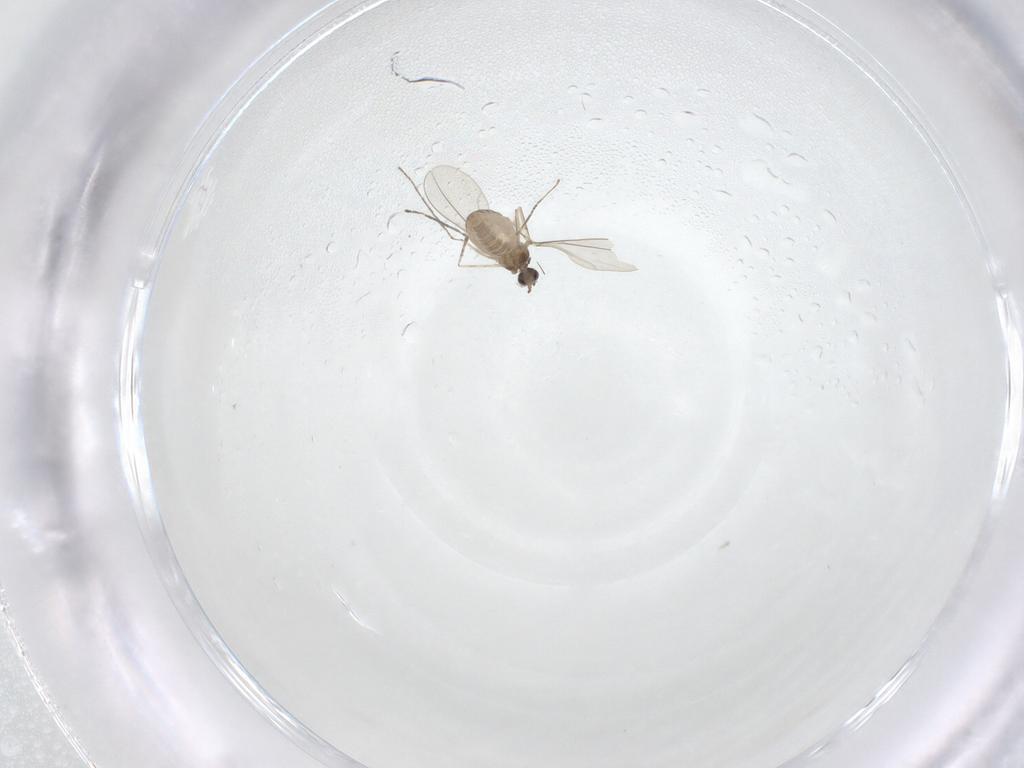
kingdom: Animalia
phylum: Arthropoda
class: Insecta
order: Diptera
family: Cecidomyiidae
